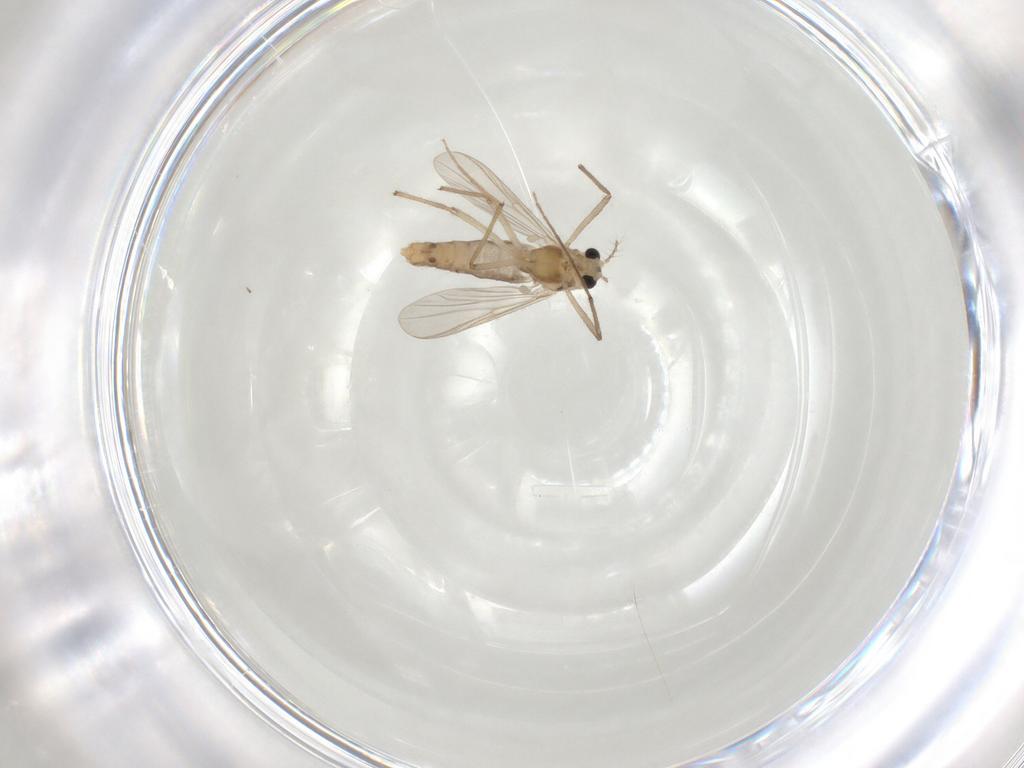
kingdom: Animalia
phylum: Arthropoda
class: Insecta
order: Diptera
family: Chironomidae
